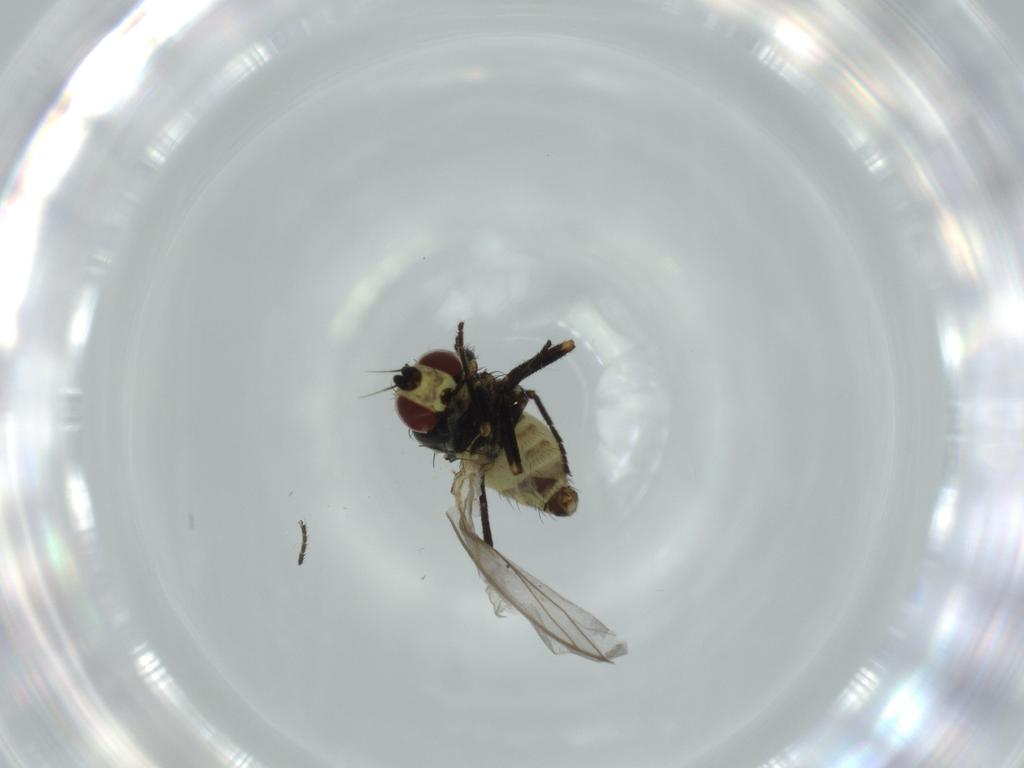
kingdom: Animalia
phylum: Arthropoda
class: Insecta
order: Diptera
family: Agromyzidae
